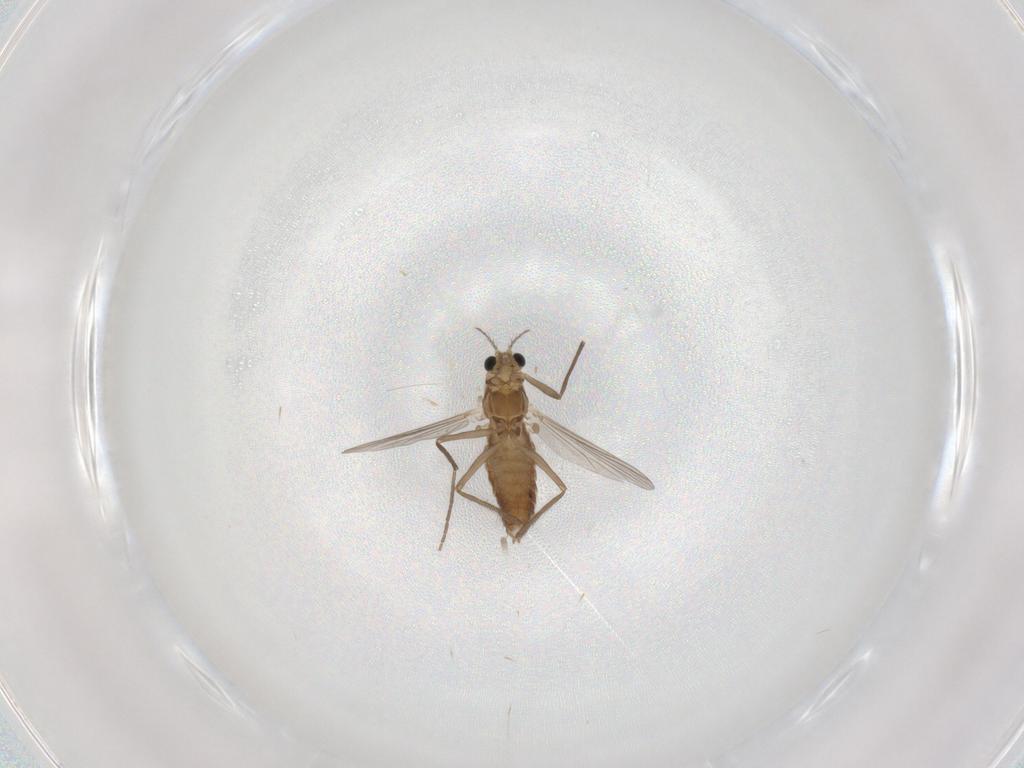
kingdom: Animalia
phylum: Arthropoda
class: Insecta
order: Diptera
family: Chironomidae
